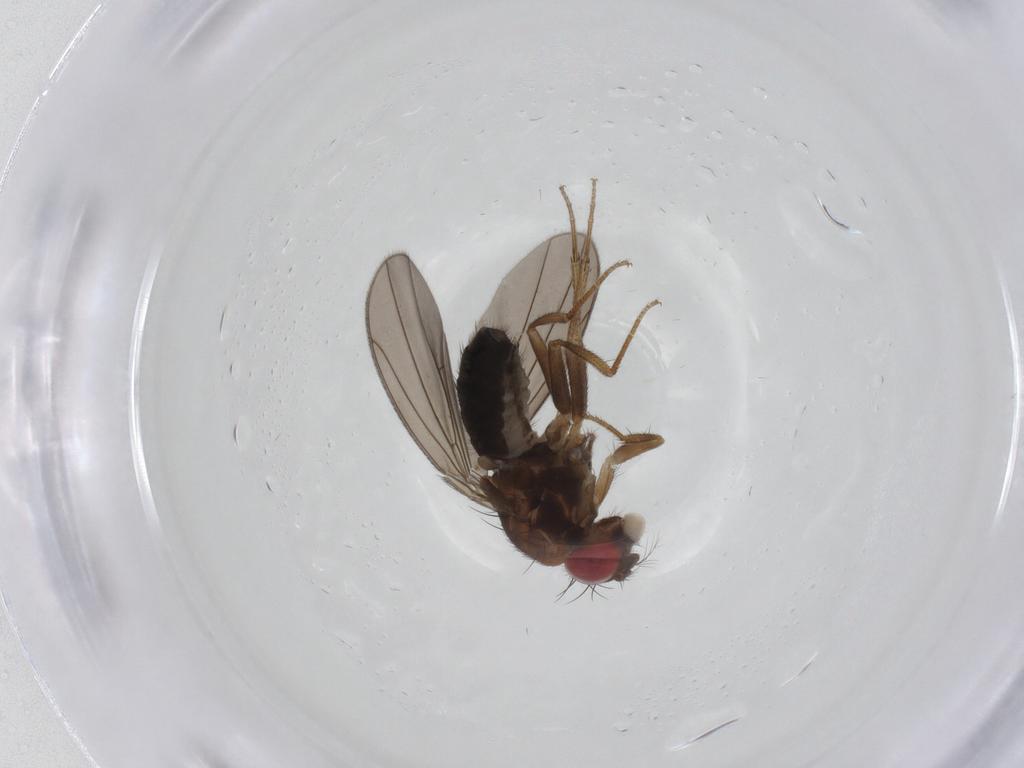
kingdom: Animalia
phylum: Arthropoda
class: Insecta
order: Diptera
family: Drosophilidae
